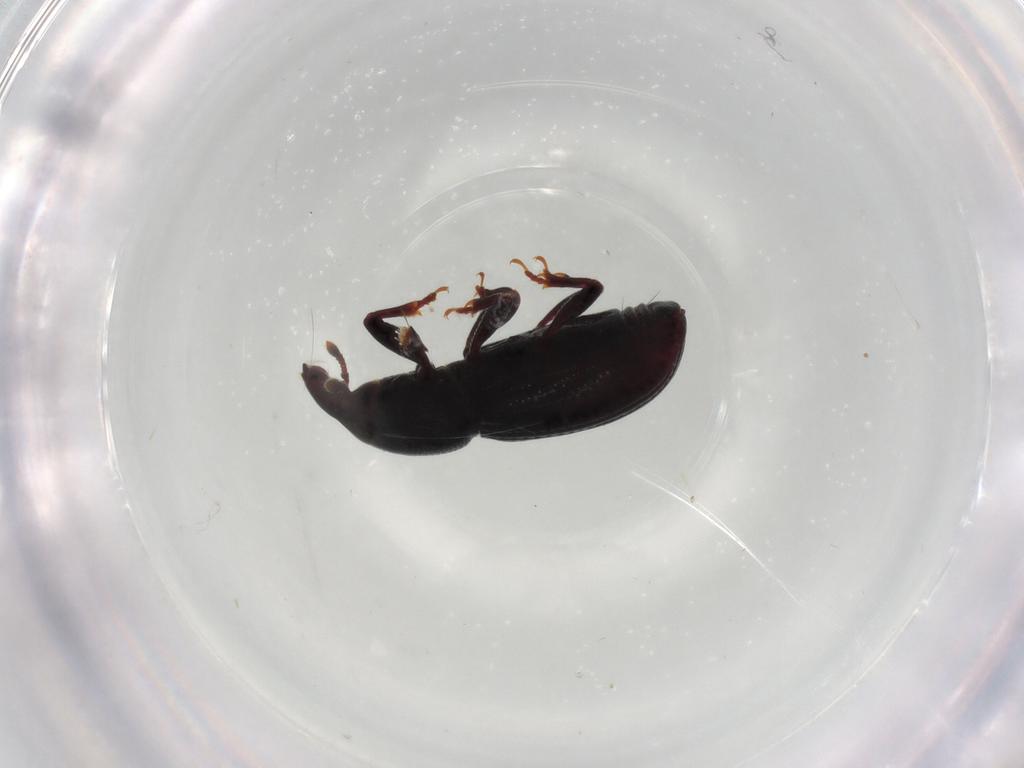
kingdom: Animalia
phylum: Arthropoda
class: Insecta
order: Coleoptera
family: Curculionidae
